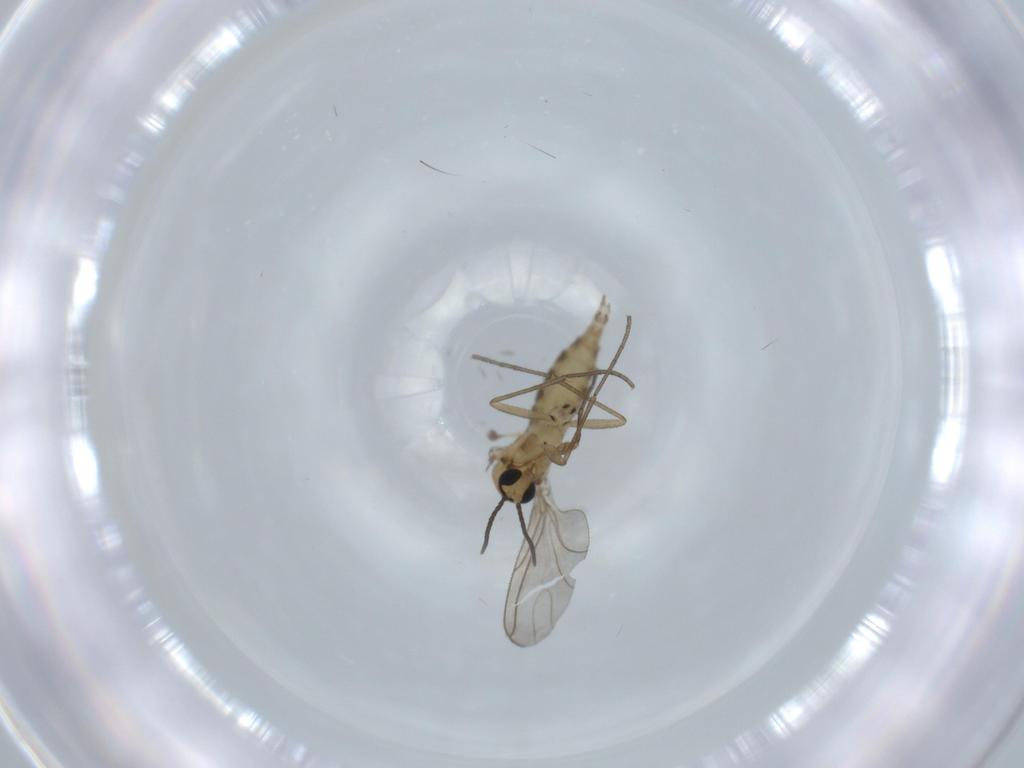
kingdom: Animalia
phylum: Arthropoda
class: Insecta
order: Diptera
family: Sciaridae
